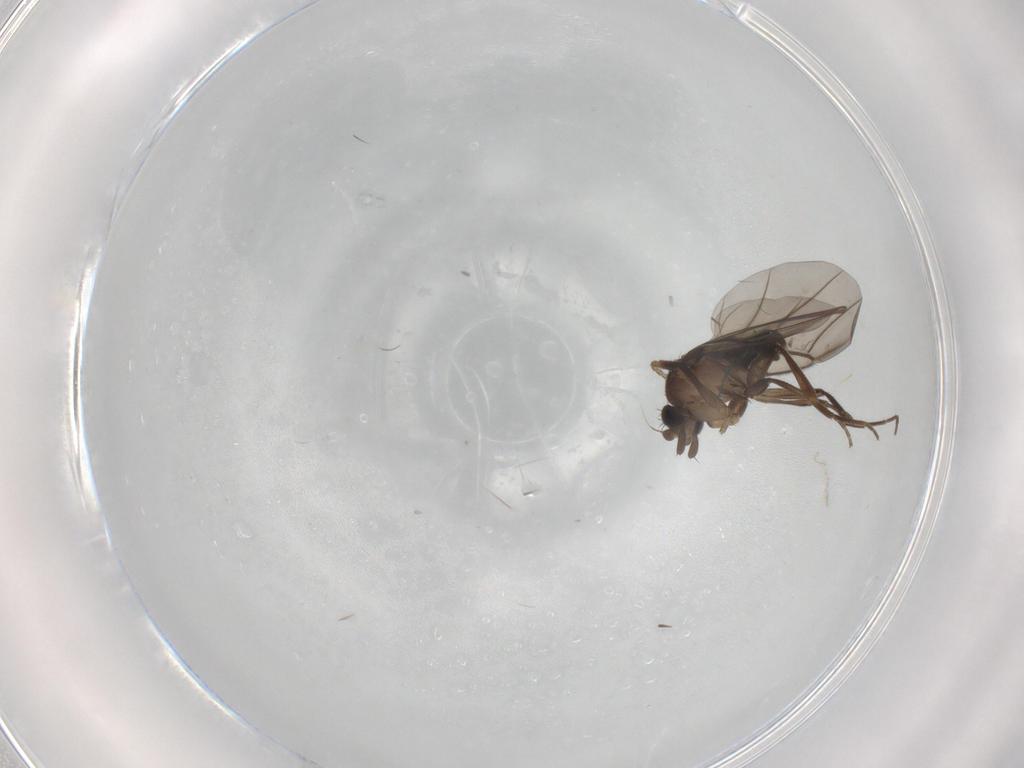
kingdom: Animalia
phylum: Arthropoda
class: Insecta
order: Diptera
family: Phoridae
